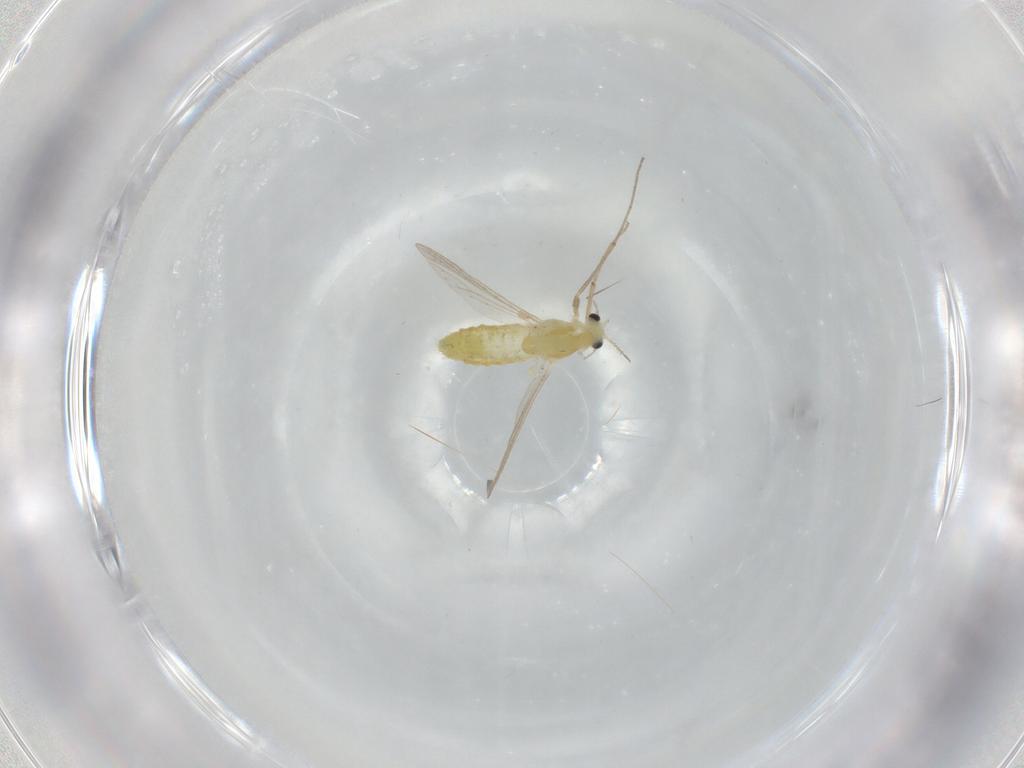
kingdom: Animalia
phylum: Arthropoda
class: Insecta
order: Diptera
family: Chironomidae
